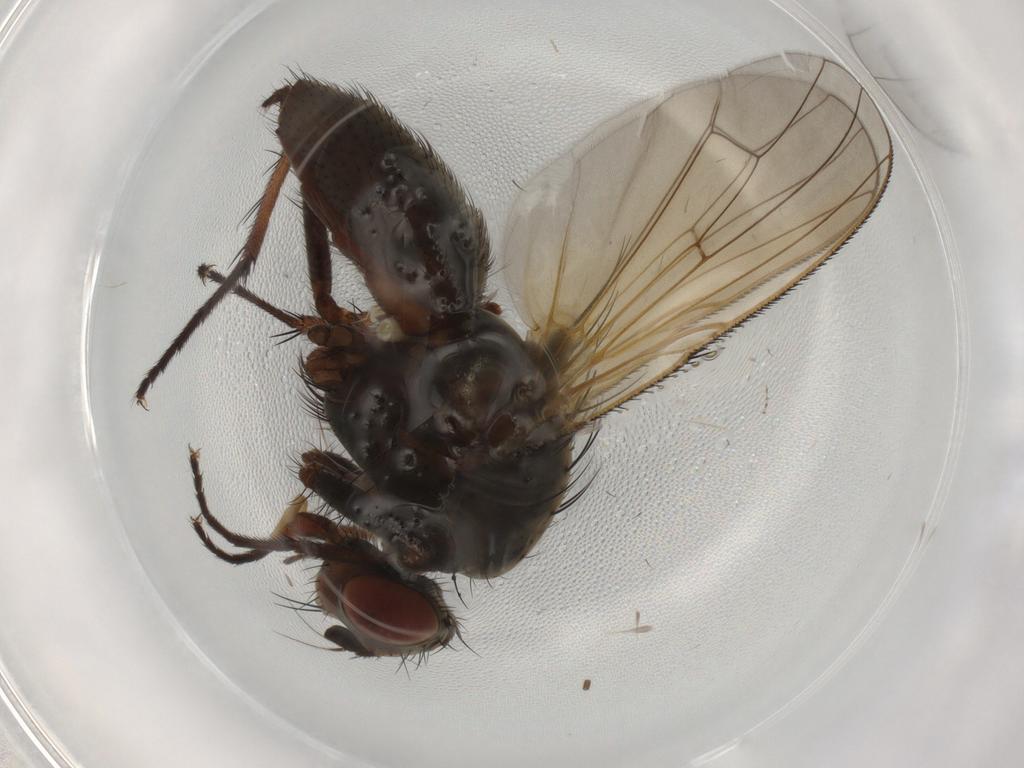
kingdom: Animalia
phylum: Arthropoda
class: Insecta
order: Diptera
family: Anthomyiidae
